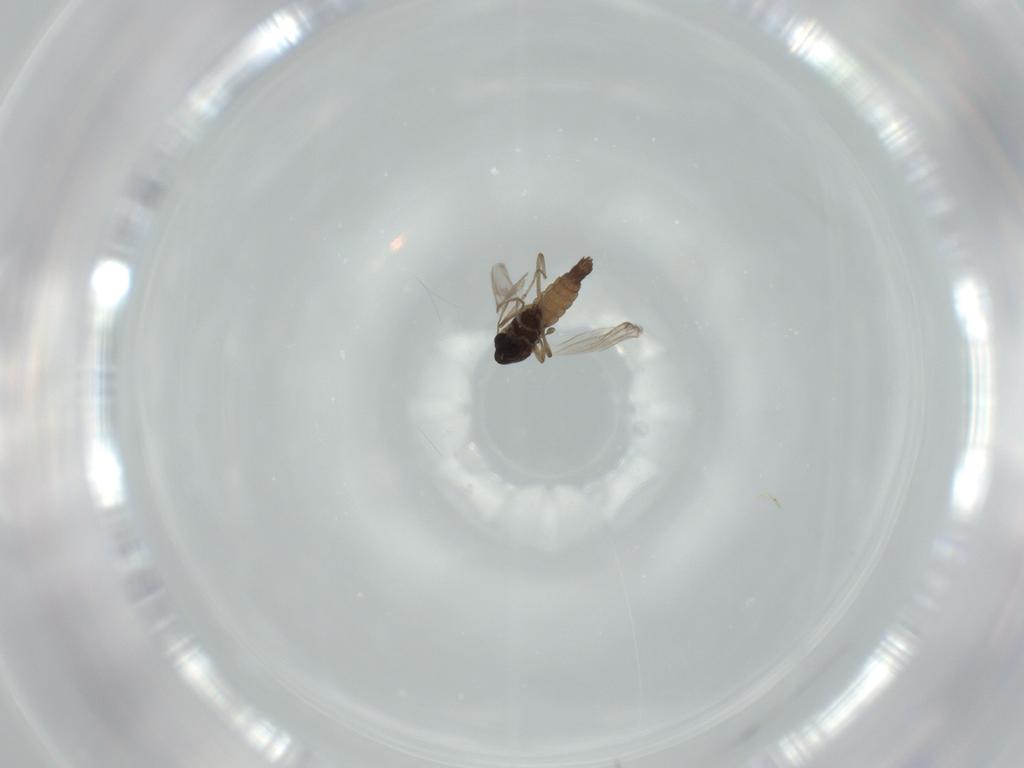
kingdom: Animalia
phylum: Arthropoda
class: Insecta
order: Diptera
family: Chironomidae
